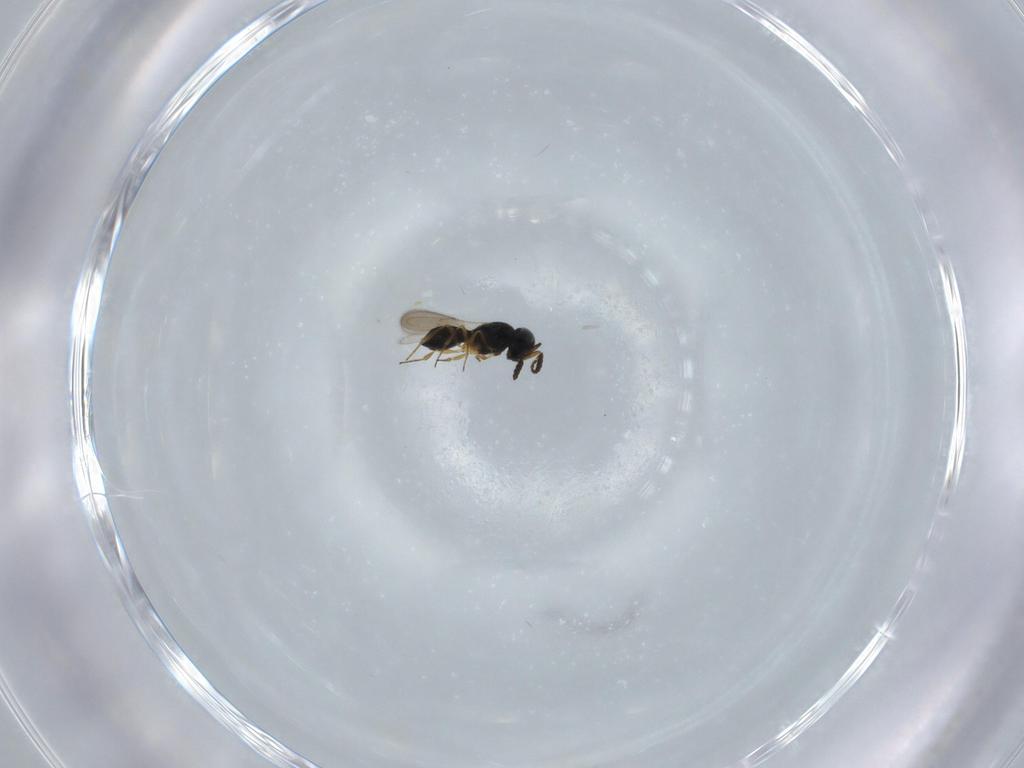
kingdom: Animalia
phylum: Arthropoda
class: Insecta
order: Hymenoptera
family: Scelionidae
